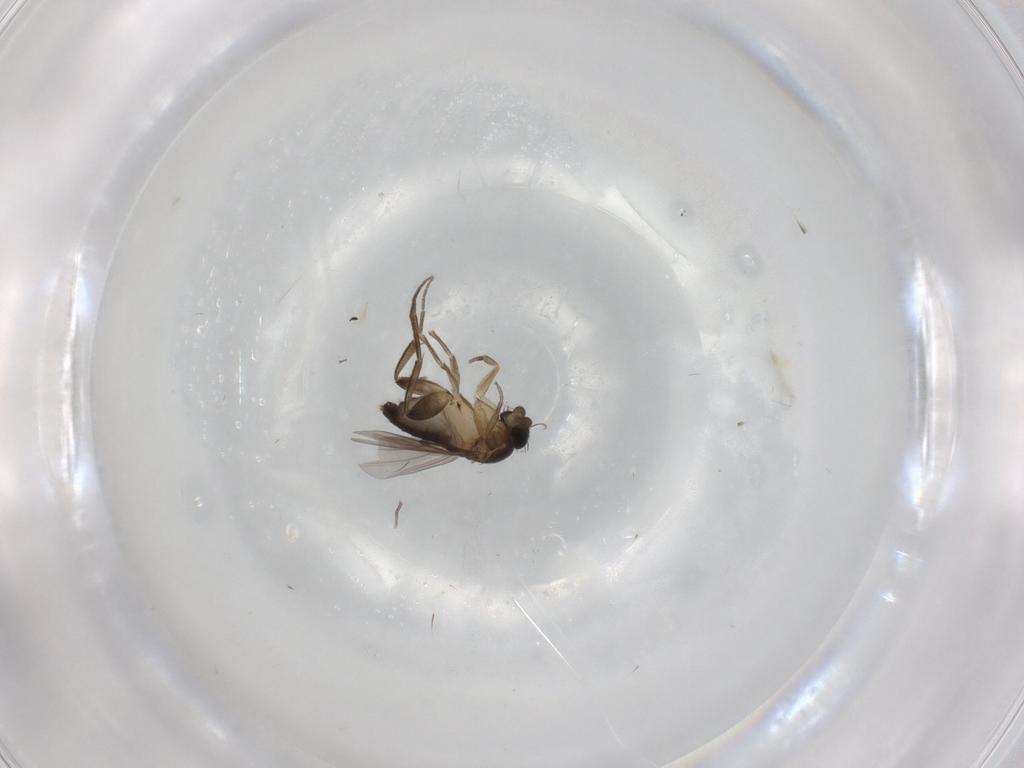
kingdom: Animalia
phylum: Arthropoda
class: Insecta
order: Diptera
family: Phoridae
